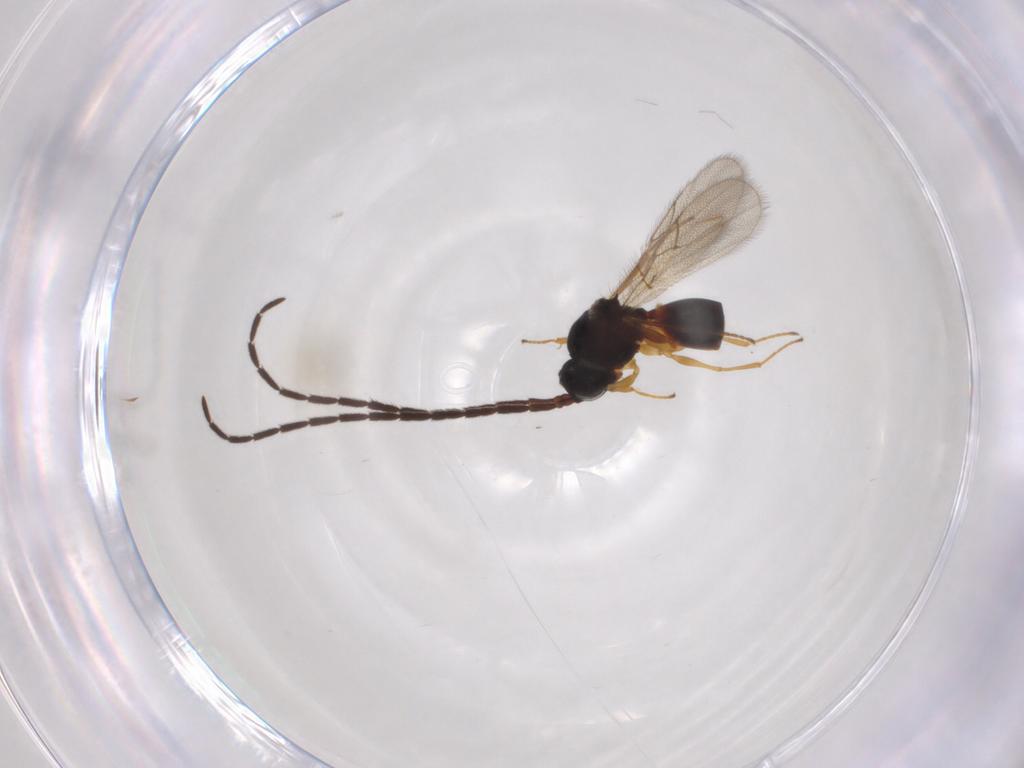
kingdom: Animalia
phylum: Arthropoda
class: Insecta
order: Hymenoptera
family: Figitidae
